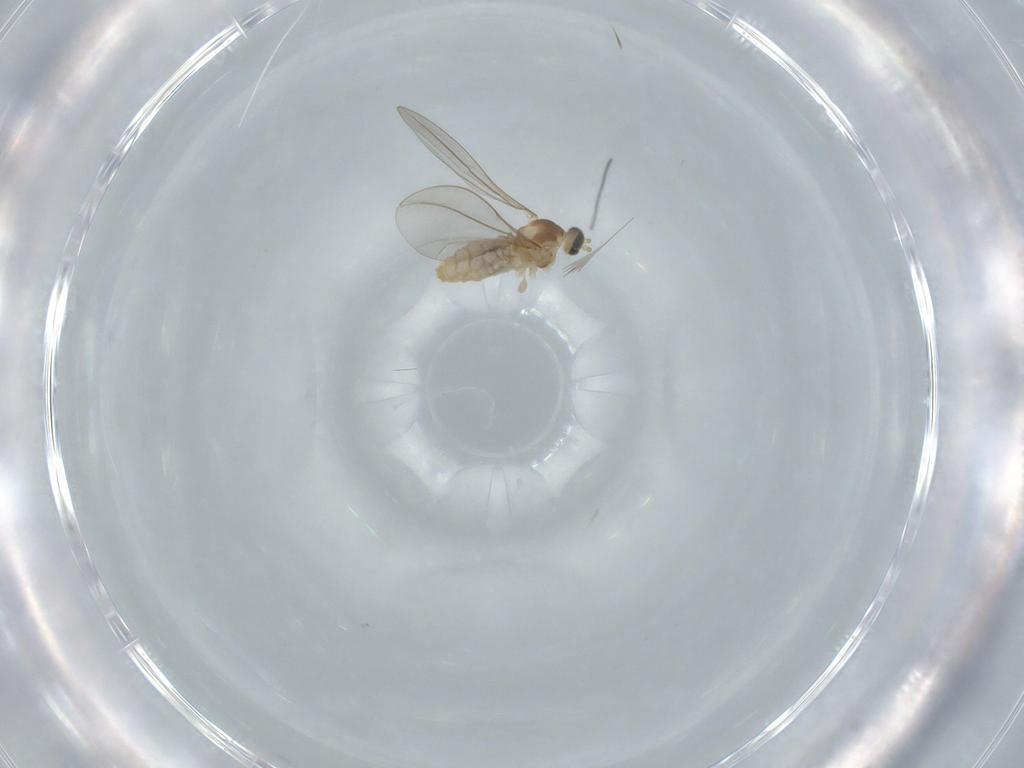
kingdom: Animalia
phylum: Arthropoda
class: Insecta
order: Diptera
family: Cecidomyiidae
